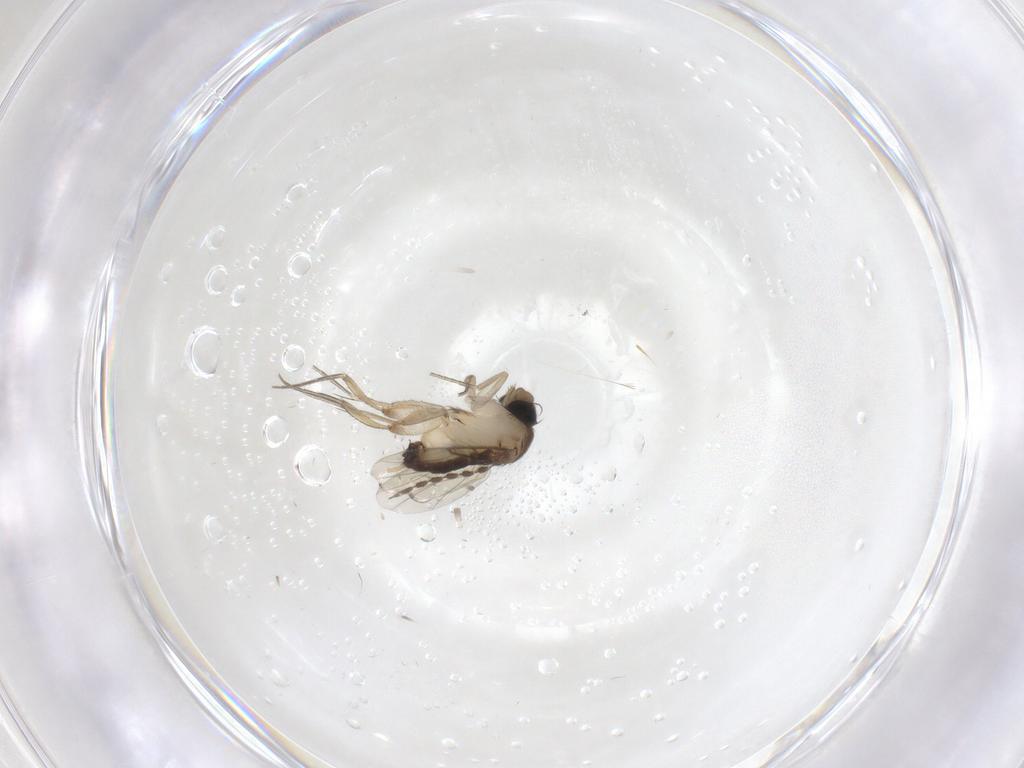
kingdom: Animalia
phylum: Arthropoda
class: Insecta
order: Diptera
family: Phoridae
